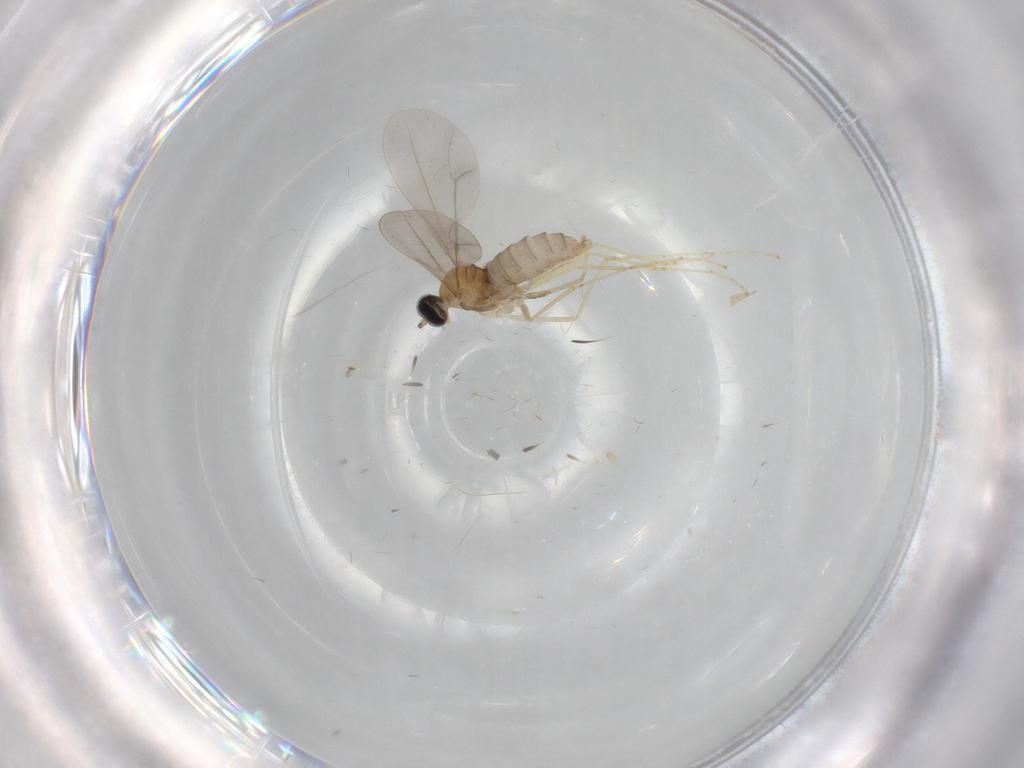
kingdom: Animalia
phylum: Arthropoda
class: Insecta
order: Diptera
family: Cecidomyiidae
